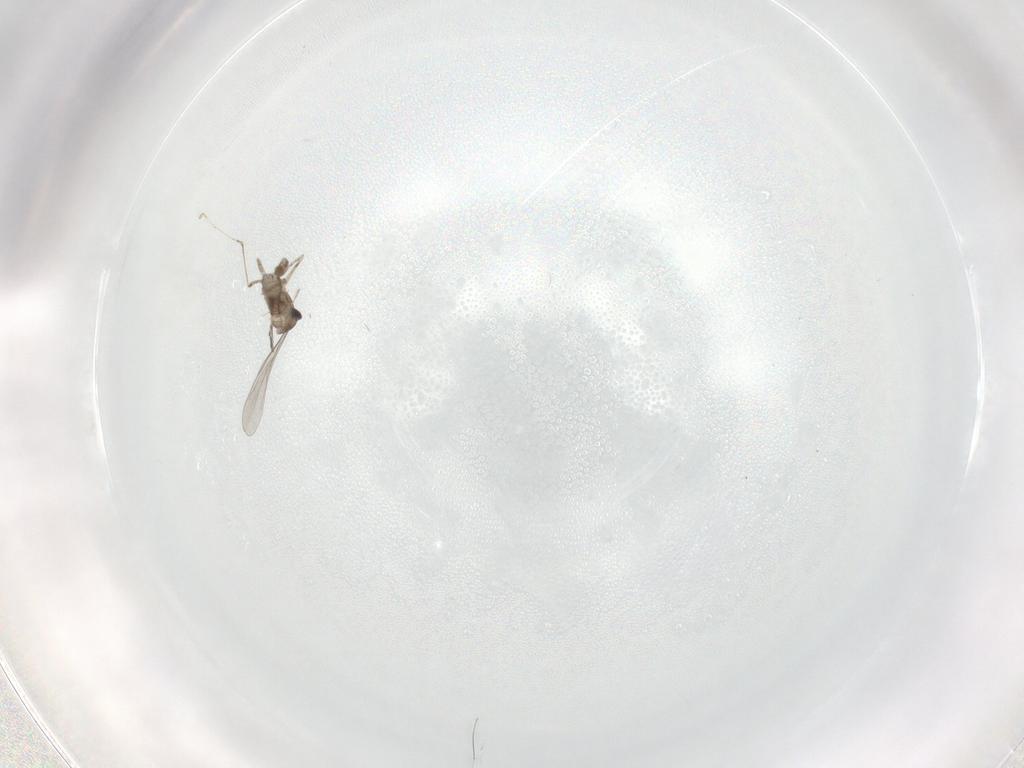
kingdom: Animalia
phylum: Arthropoda
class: Insecta
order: Diptera
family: Cecidomyiidae
